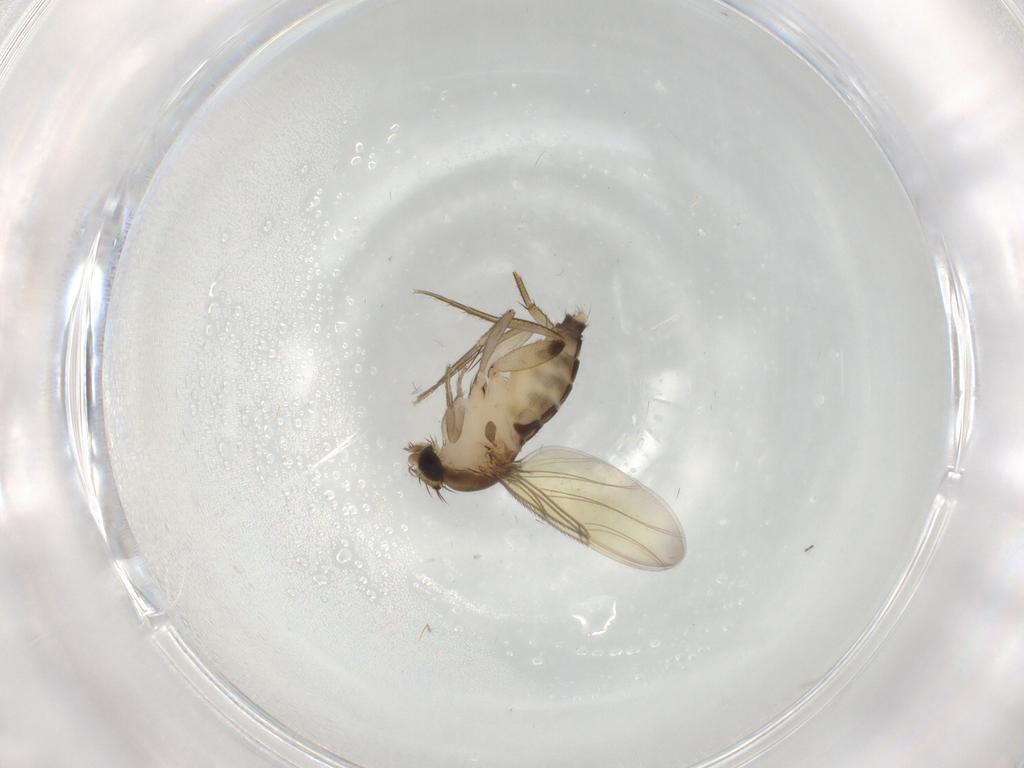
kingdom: Animalia
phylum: Arthropoda
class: Insecta
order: Diptera
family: Phoridae
